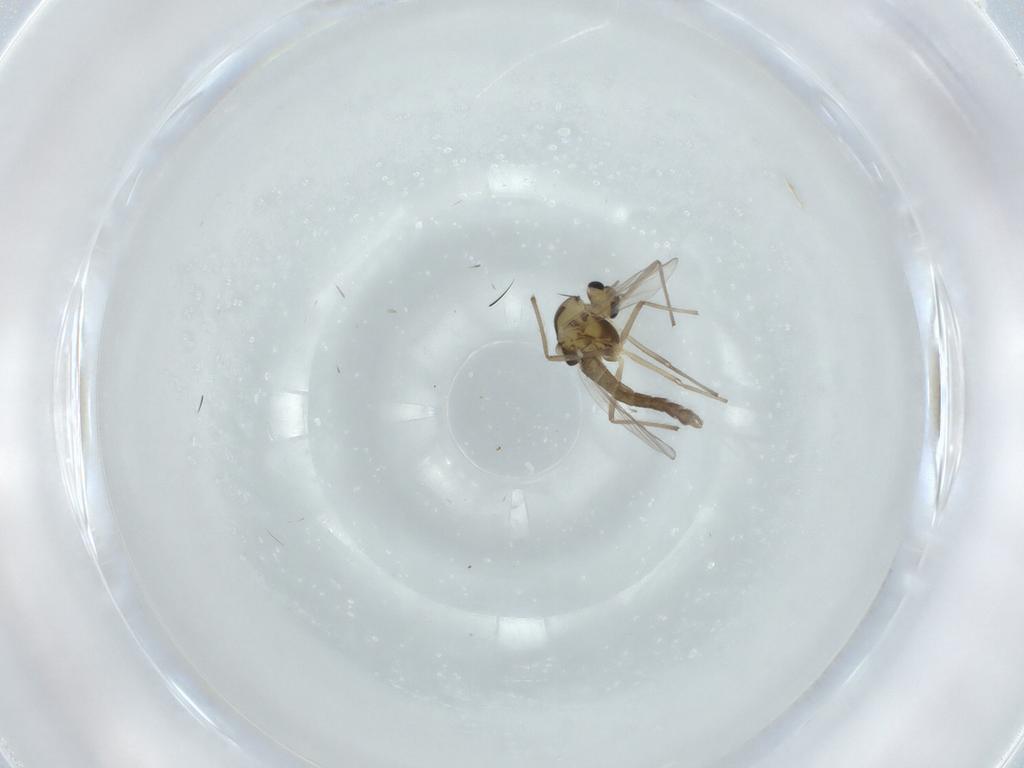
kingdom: Animalia
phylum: Arthropoda
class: Insecta
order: Diptera
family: Chironomidae
